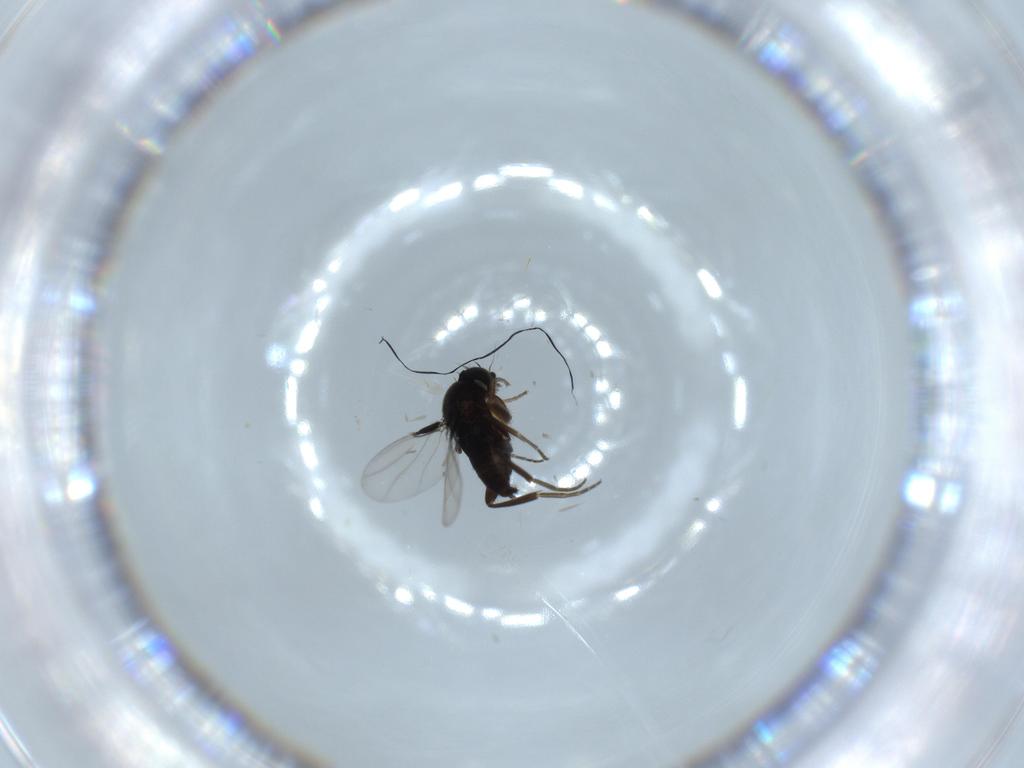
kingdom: Animalia
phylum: Arthropoda
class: Insecta
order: Diptera
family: Phoridae
